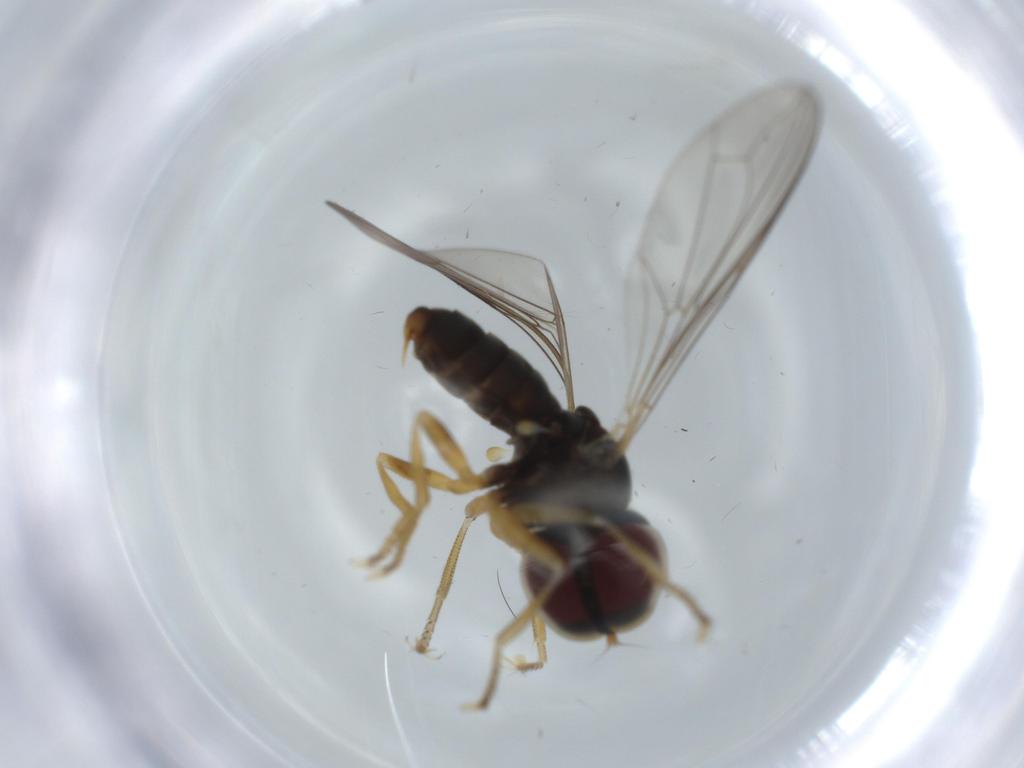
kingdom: Animalia
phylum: Arthropoda
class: Insecta
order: Diptera
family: Pipunculidae
